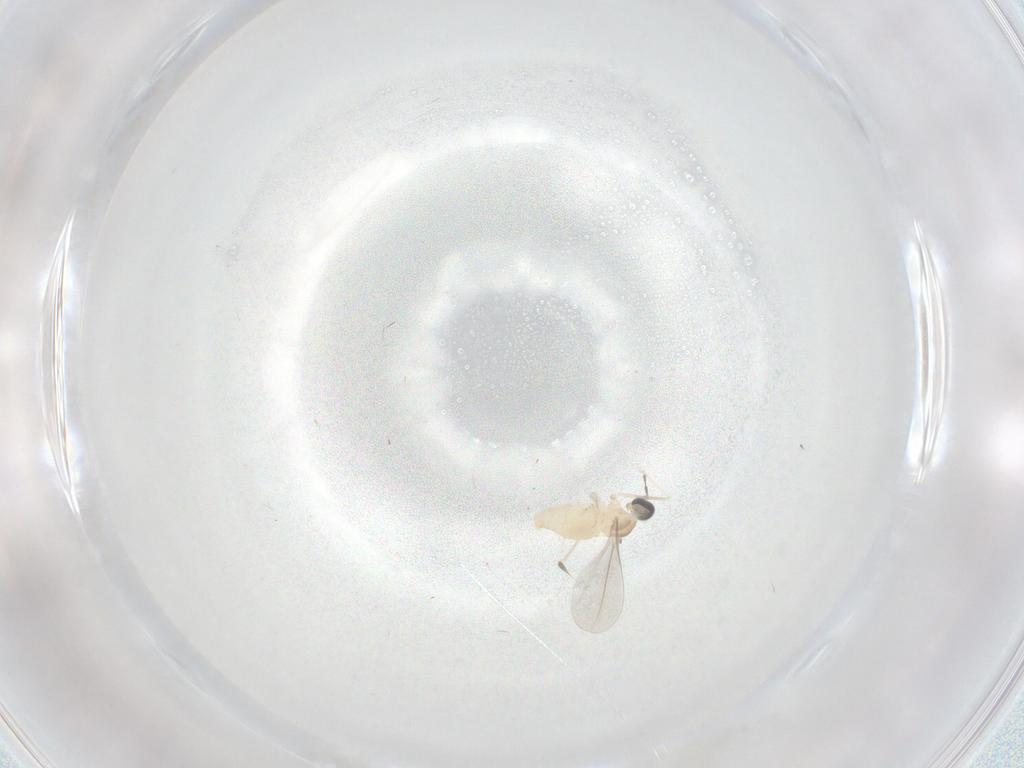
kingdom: Animalia
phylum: Arthropoda
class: Insecta
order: Diptera
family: Cecidomyiidae
